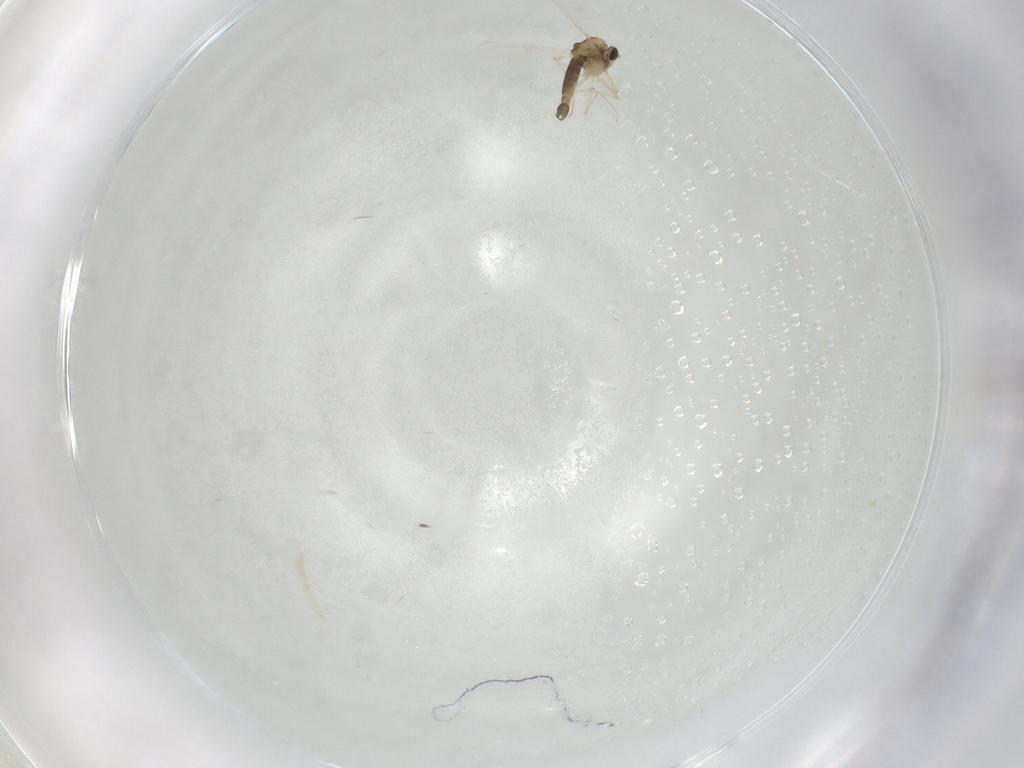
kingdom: Animalia
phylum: Arthropoda
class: Insecta
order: Diptera
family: Chironomidae
